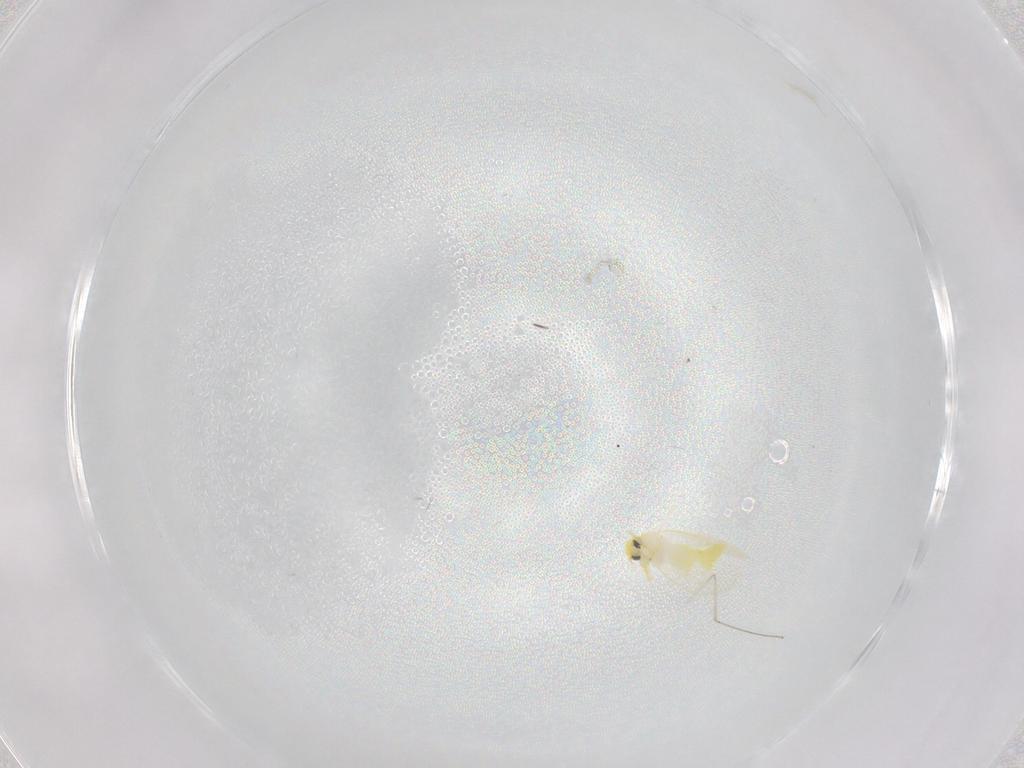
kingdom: Animalia
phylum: Arthropoda
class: Insecta
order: Hemiptera
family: Aleyrodidae
